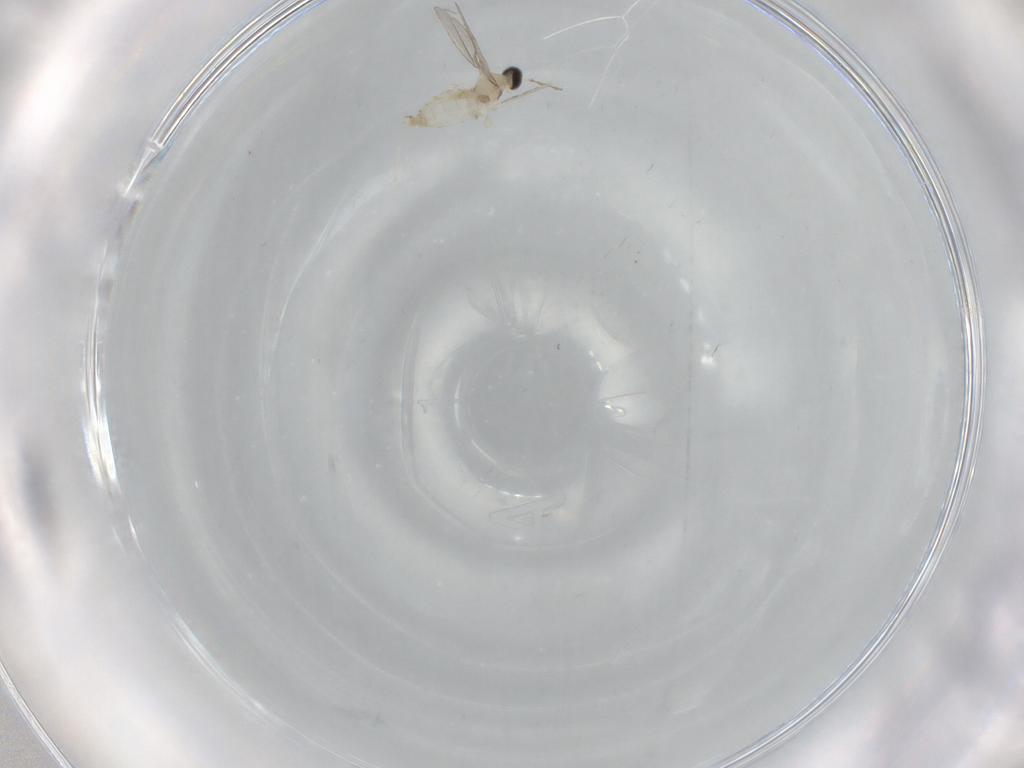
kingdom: Animalia
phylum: Arthropoda
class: Insecta
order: Diptera
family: Cecidomyiidae
